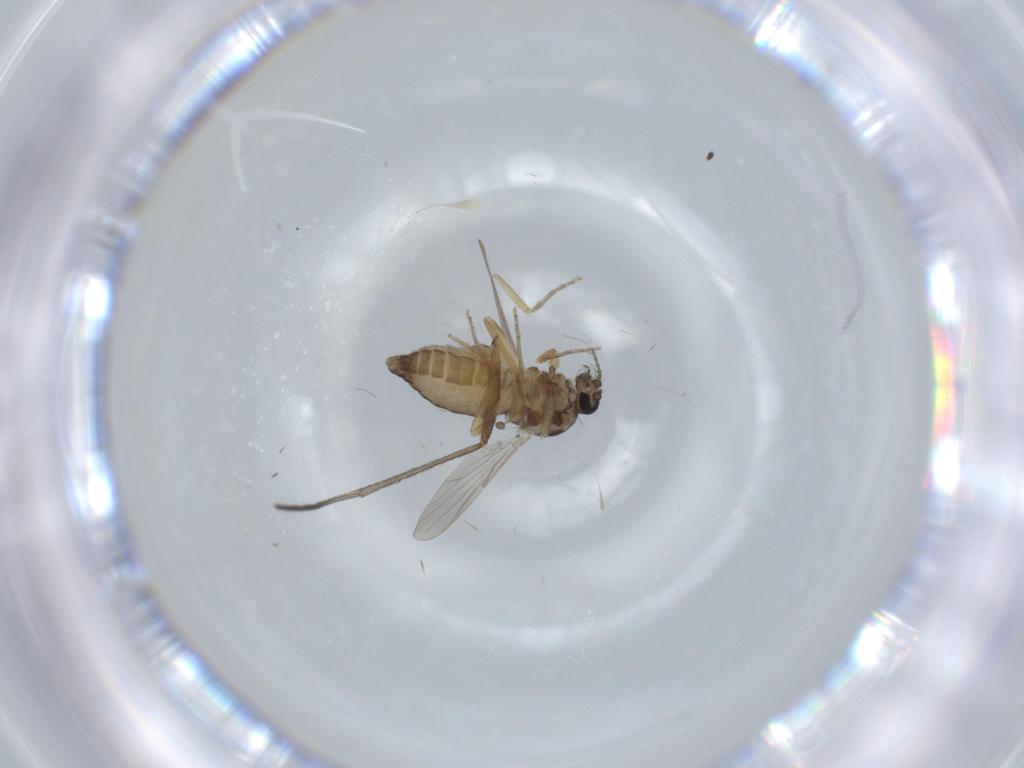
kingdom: Animalia
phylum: Arthropoda
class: Insecta
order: Diptera
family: Ceratopogonidae
